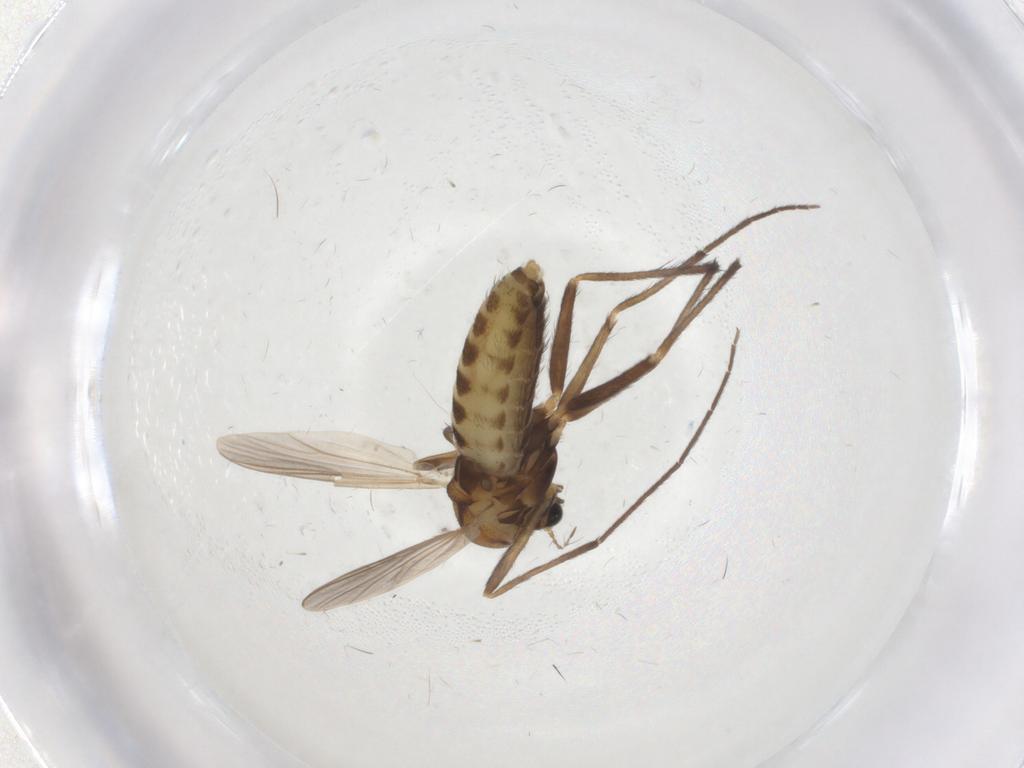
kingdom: Animalia
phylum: Arthropoda
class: Insecta
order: Diptera
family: Chironomidae
